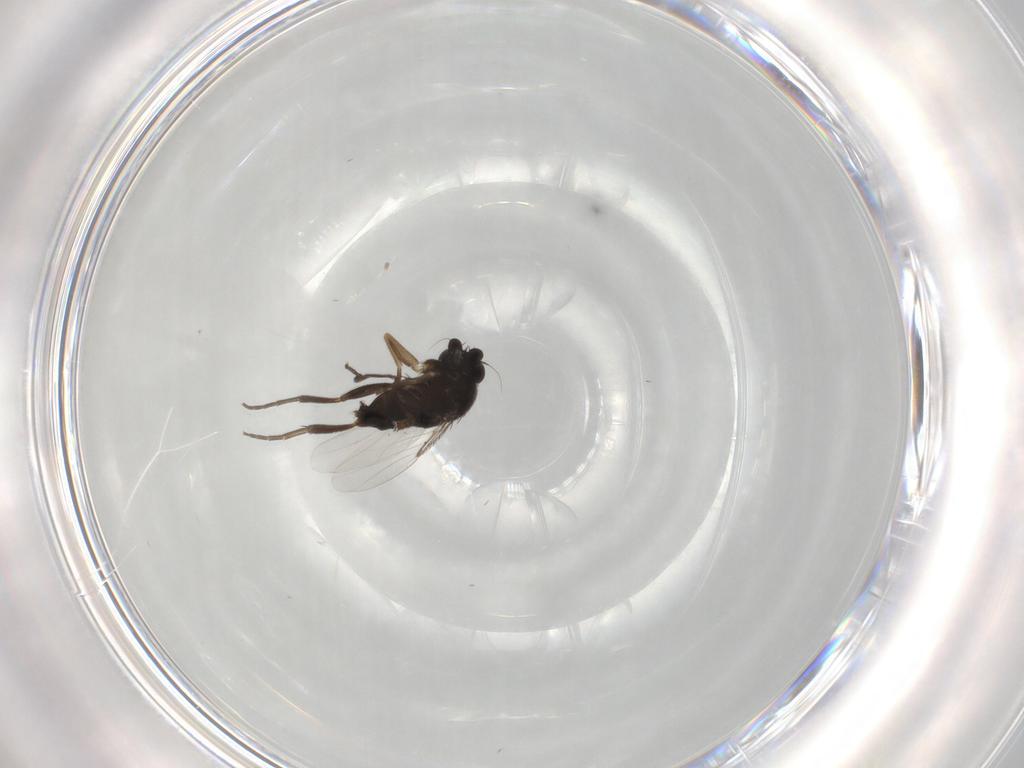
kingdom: Animalia
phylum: Arthropoda
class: Insecta
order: Diptera
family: Phoridae
